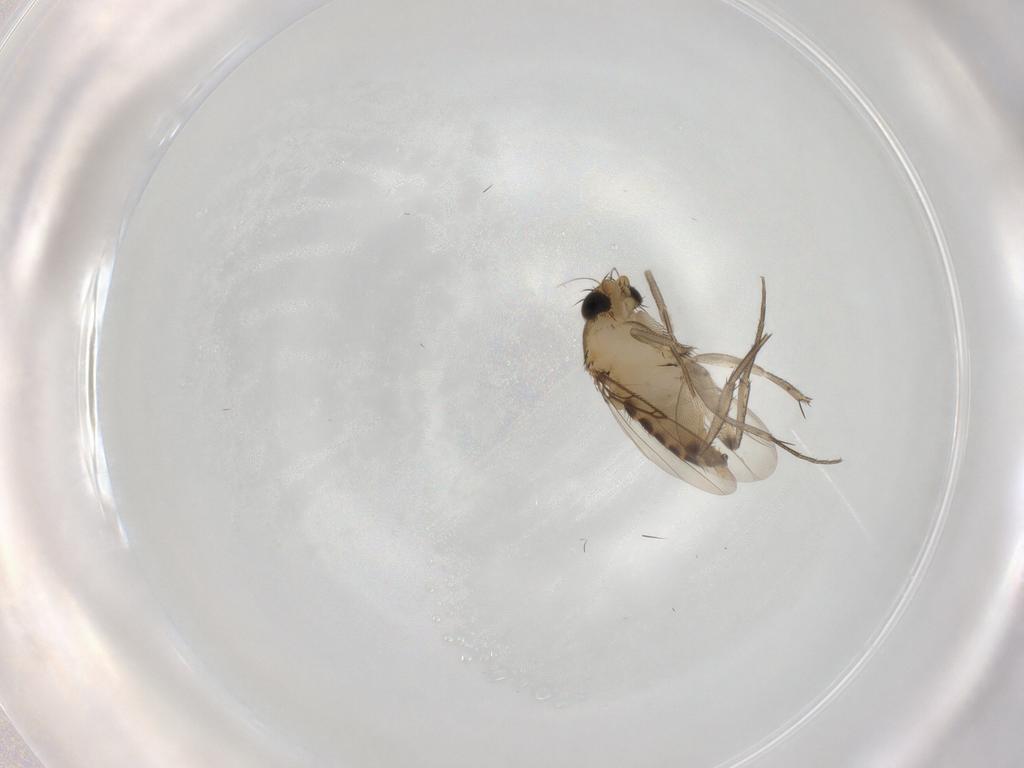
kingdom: Animalia
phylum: Arthropoda
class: Insecta
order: Diptera
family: Phoridae
